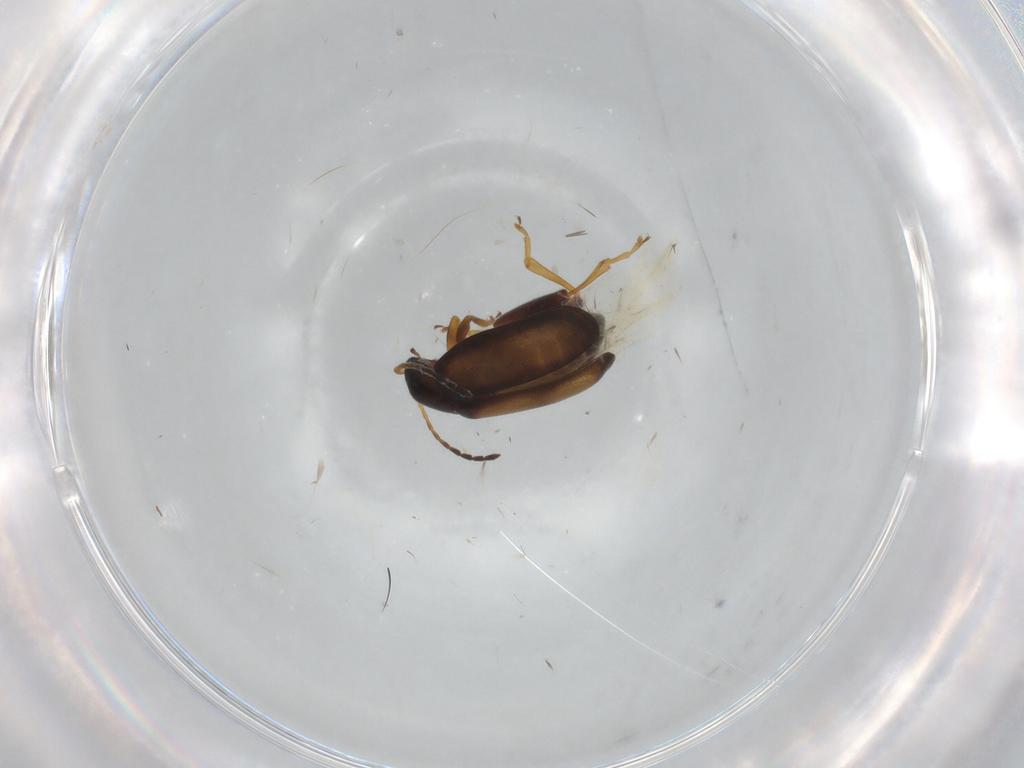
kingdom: Animalia
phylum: Arthropoda
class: Insecta
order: Coleoptera
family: Chrysomelidae
